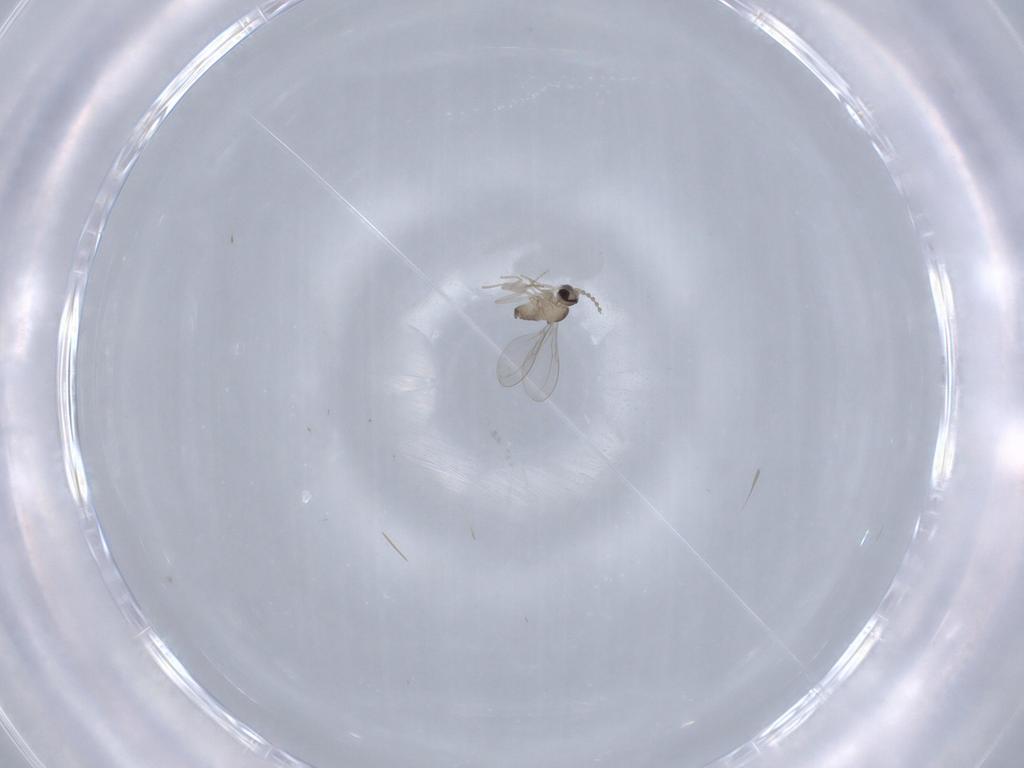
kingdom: Animalia
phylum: Arthropoda
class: Insecta
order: Diptera
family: Cecidomyiidae
